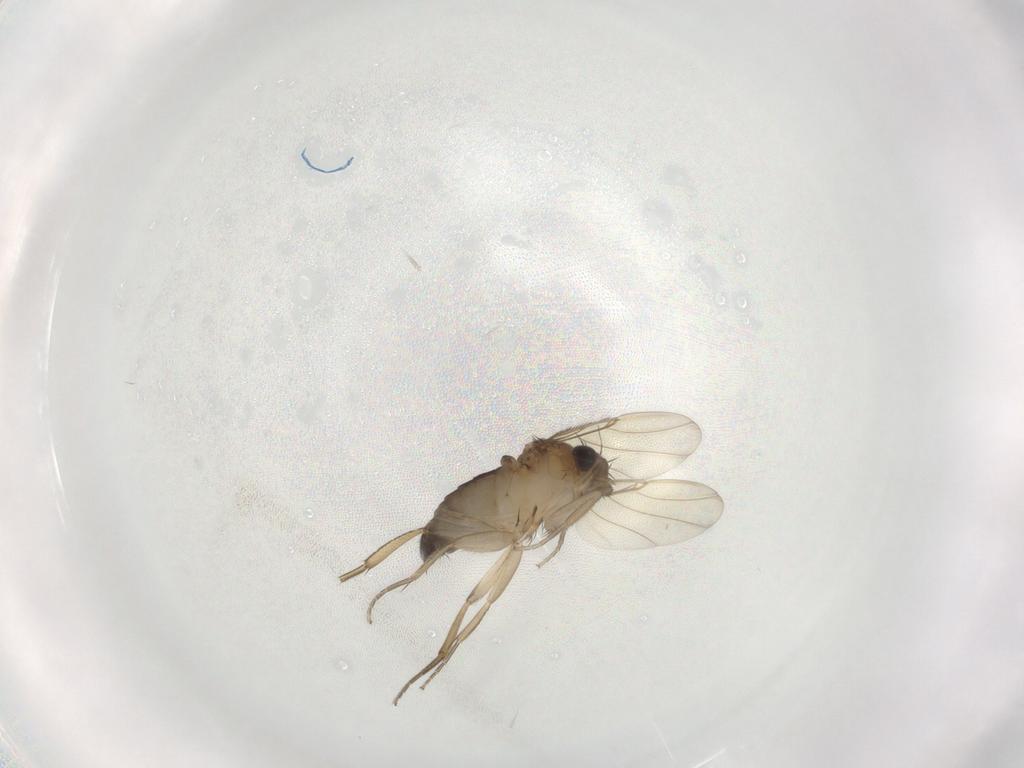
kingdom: Animalia
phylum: Arthropoda
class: Insecta
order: Diptera
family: Phoridae
